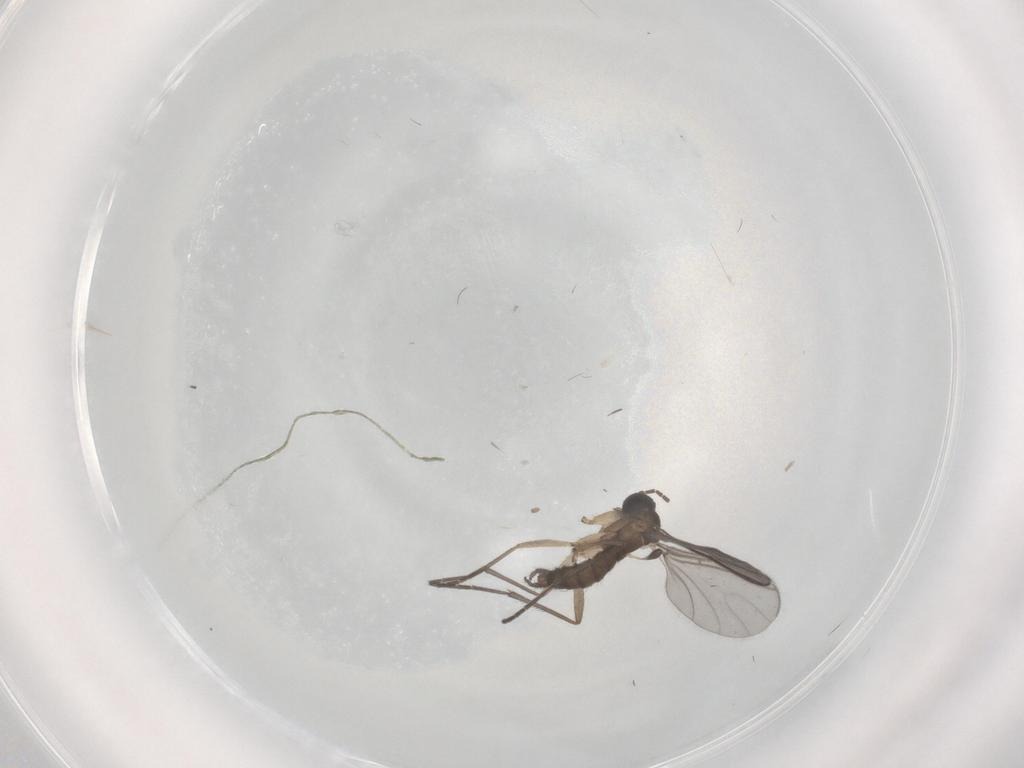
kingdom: Animalia
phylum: Arthropoda
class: Insecta
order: Diptera
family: Sciaridae
